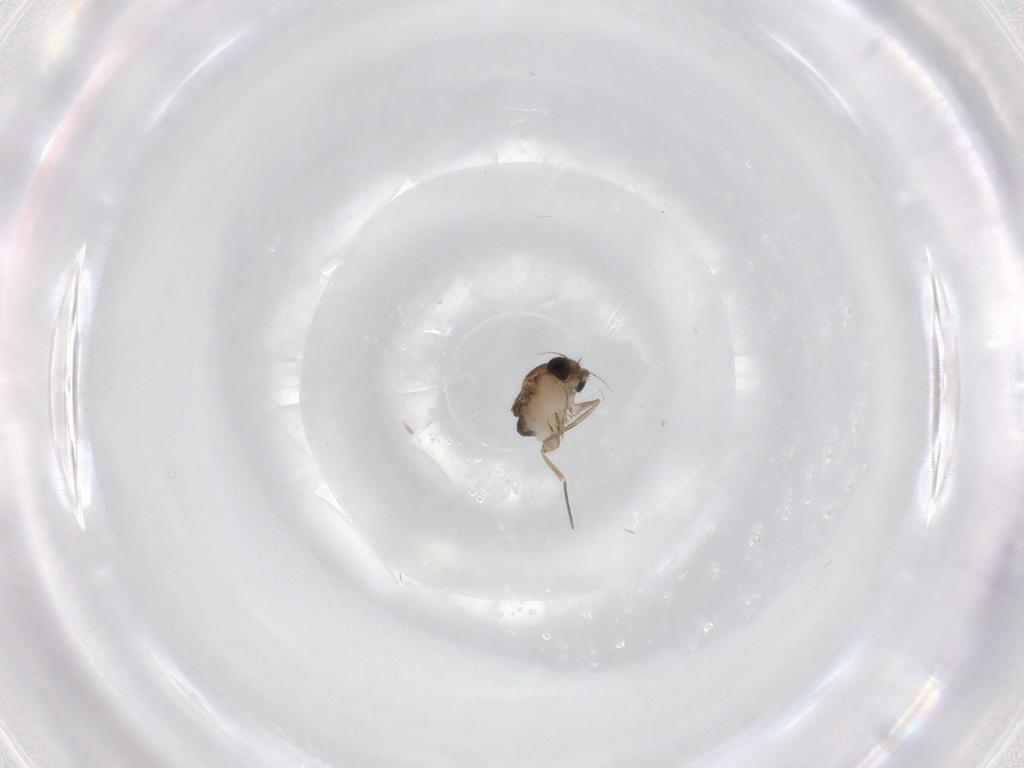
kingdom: Animalia
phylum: Arthropoda
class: Insecta
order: Diptera
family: Phoridae
